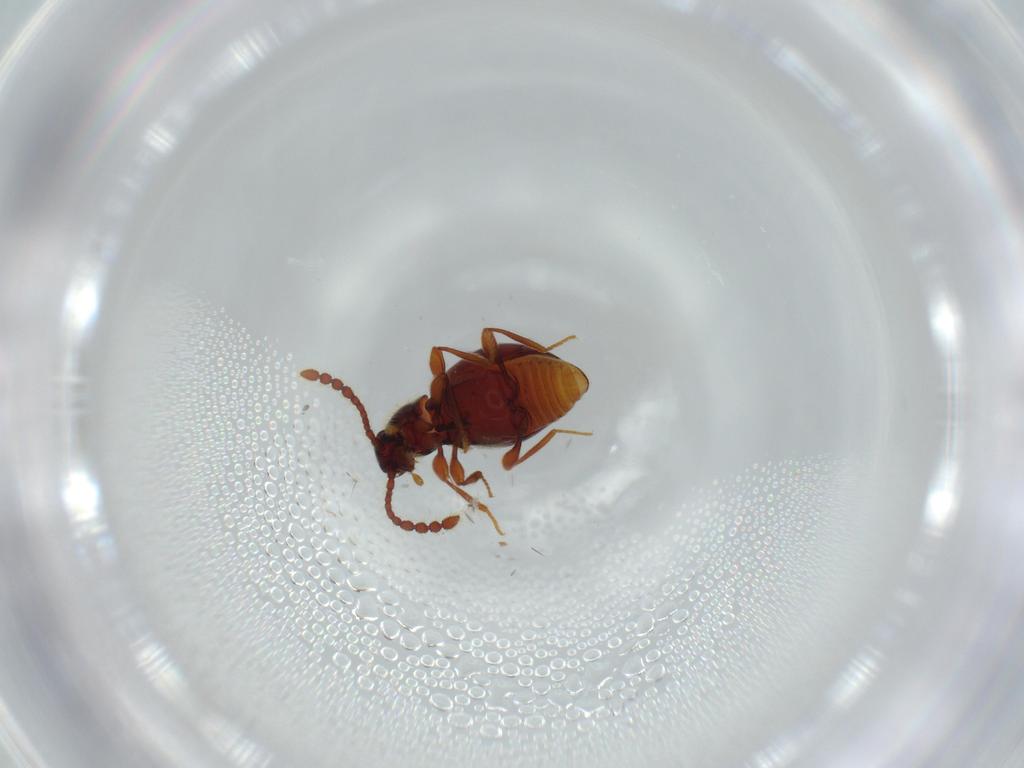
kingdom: Animalia
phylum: Arthropoda
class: Insecta
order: Coleoptera
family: Staphylinidae
